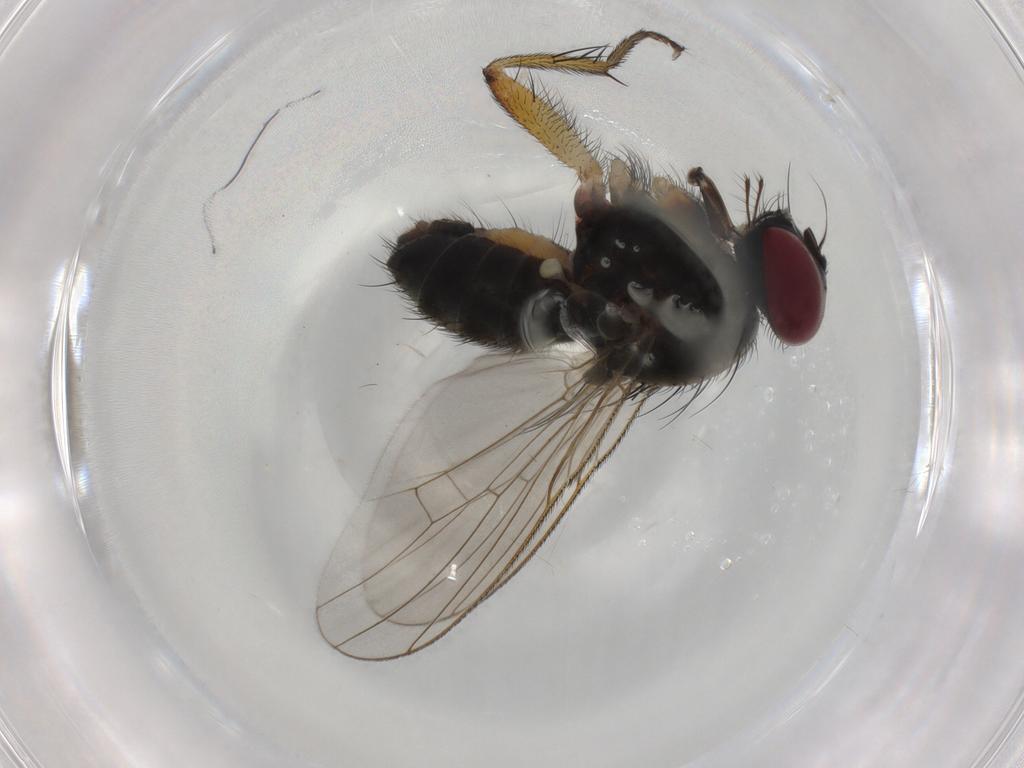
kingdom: Animalia
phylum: Arthropoda
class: Insecta
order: Diptera
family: Muscidae
